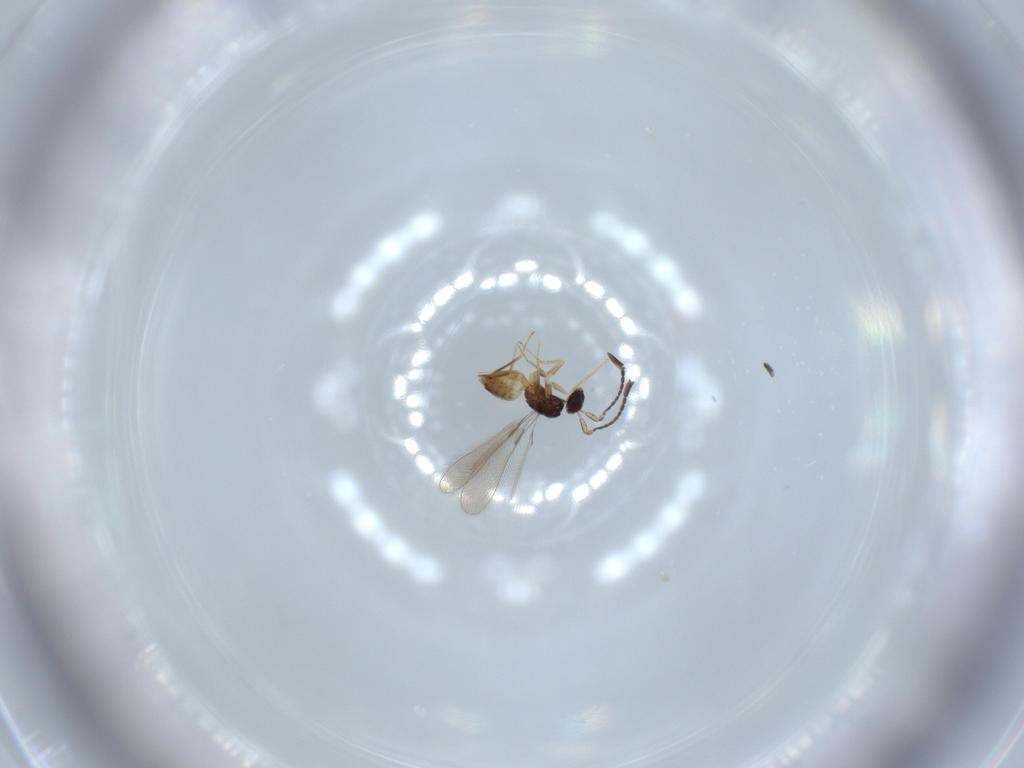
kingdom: Animalia
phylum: Arthropoda
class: Insecta
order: Hymenoptera
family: Mymaridae
